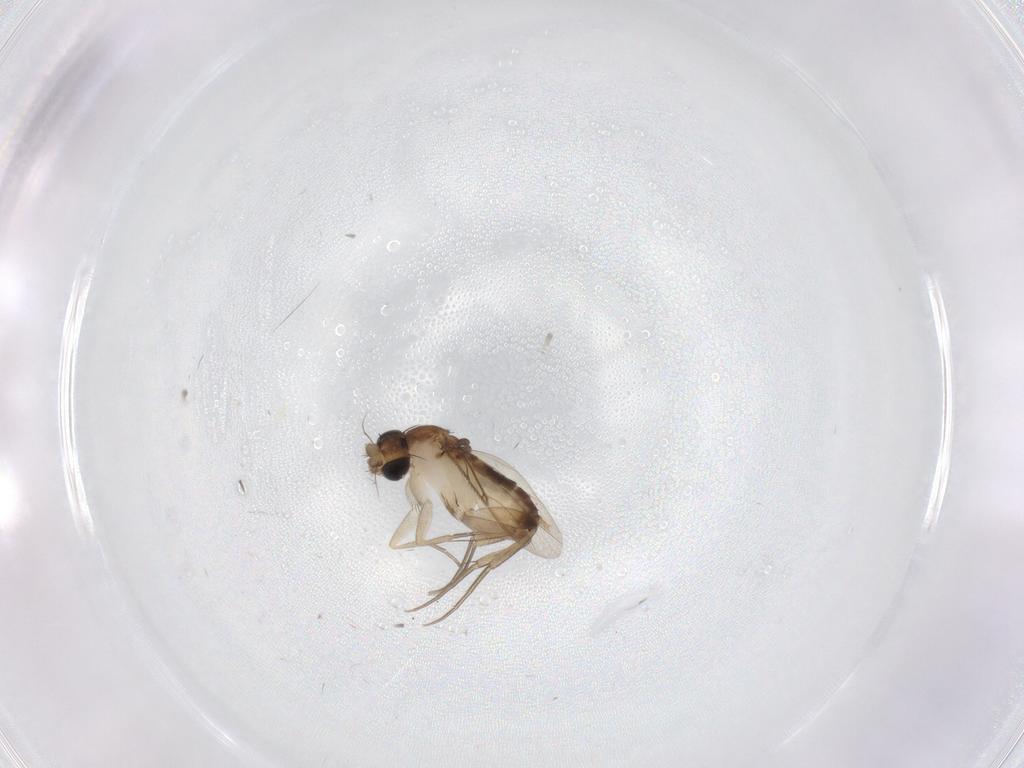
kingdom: Animalia
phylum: Arthropoda
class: Insecta
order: Diptera
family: Phoridae
